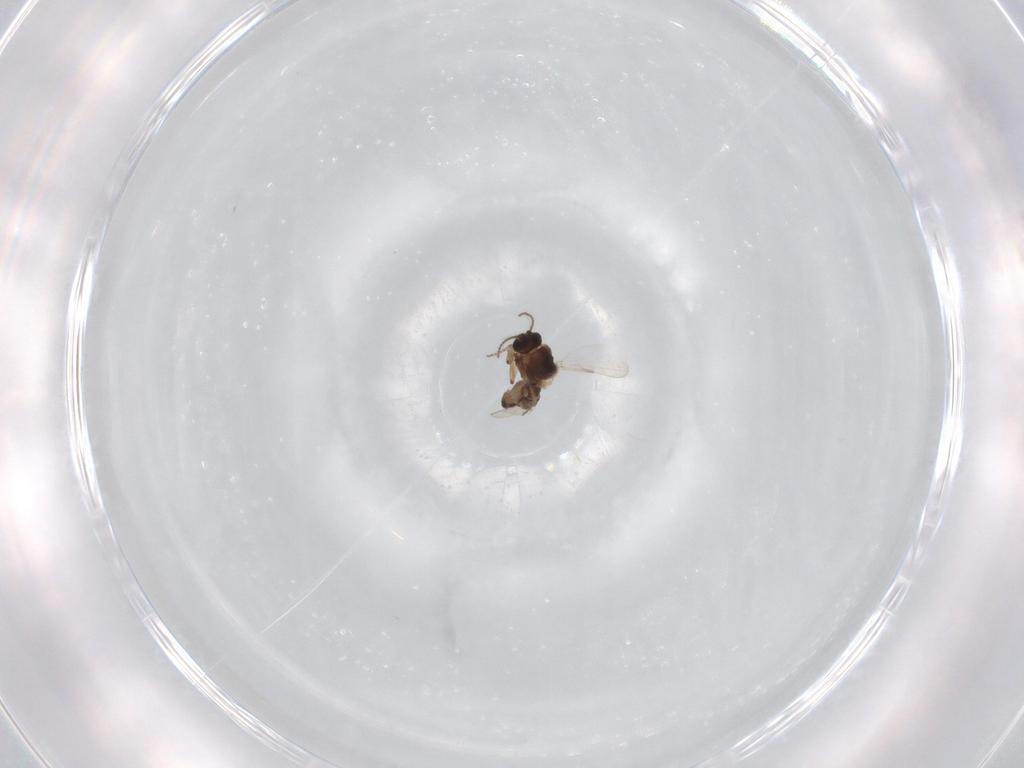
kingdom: Animalia
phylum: Arthropoda
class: Insecta
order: Diptera
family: Ceratopogonidae
